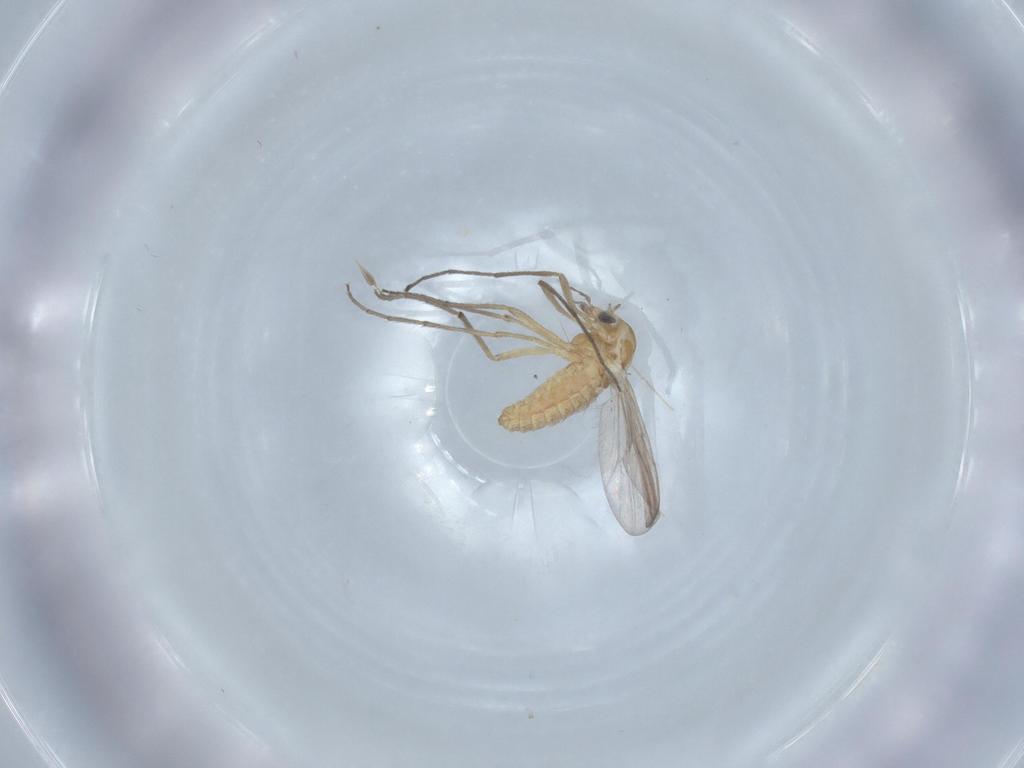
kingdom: Animalia
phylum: Arthropoda
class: Insecta
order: Diptera
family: Chironomidae
